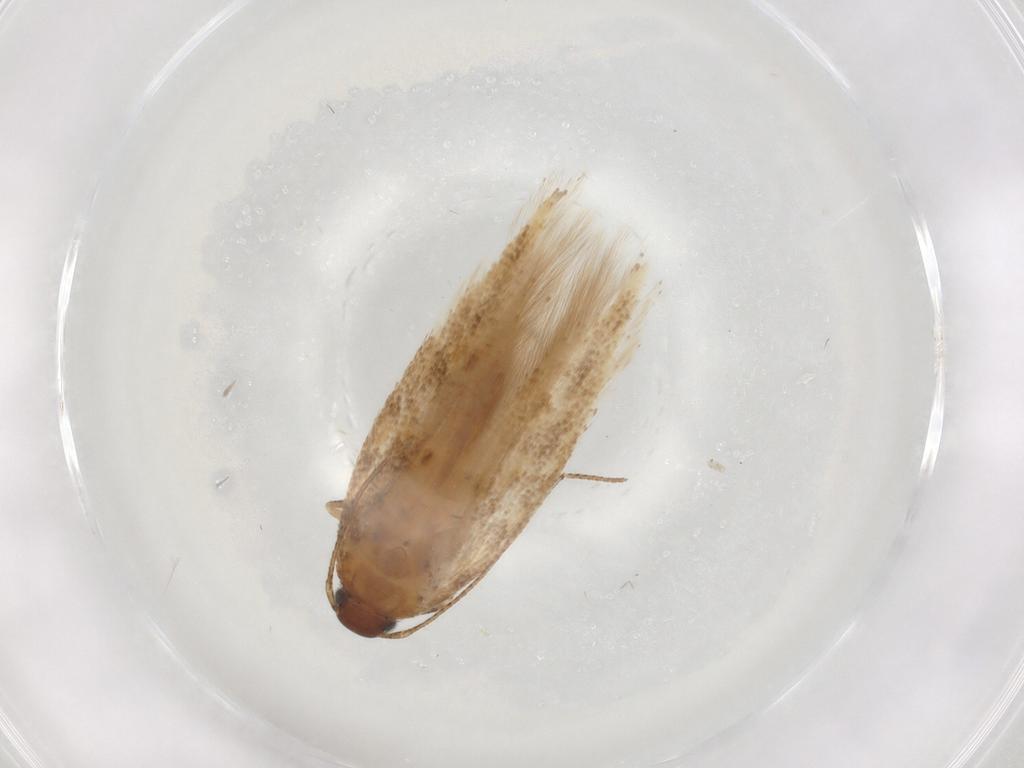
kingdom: Animalia
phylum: Arthropoda
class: Insecta
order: Lepidoptera
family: Gelechiidae
